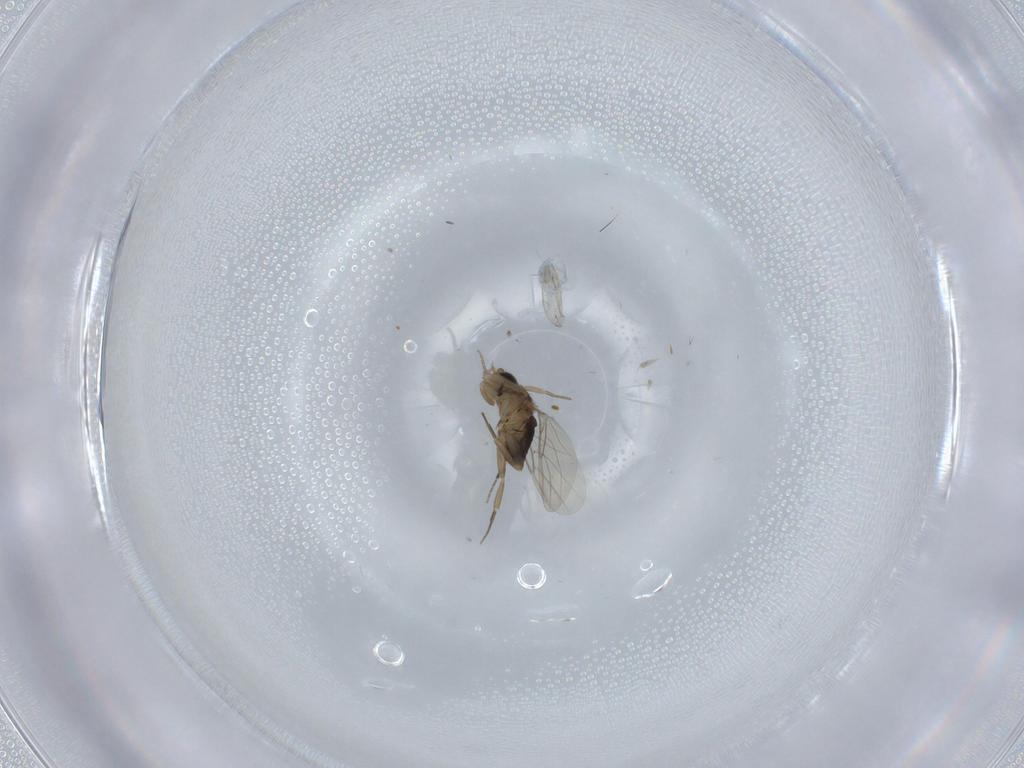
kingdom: Animalia
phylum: Arthropoda
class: Insecta
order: Diptera
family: Phoridae
